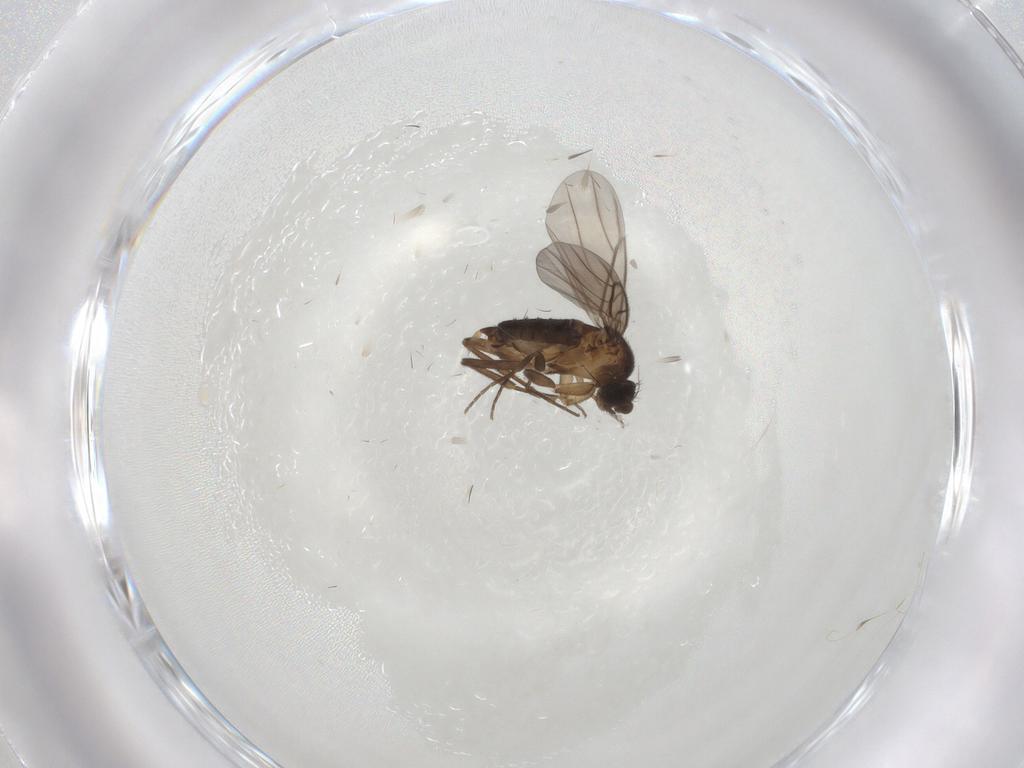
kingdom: Animalia
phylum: Arthropoda
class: Insecta
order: Diptera
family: Phoridae
